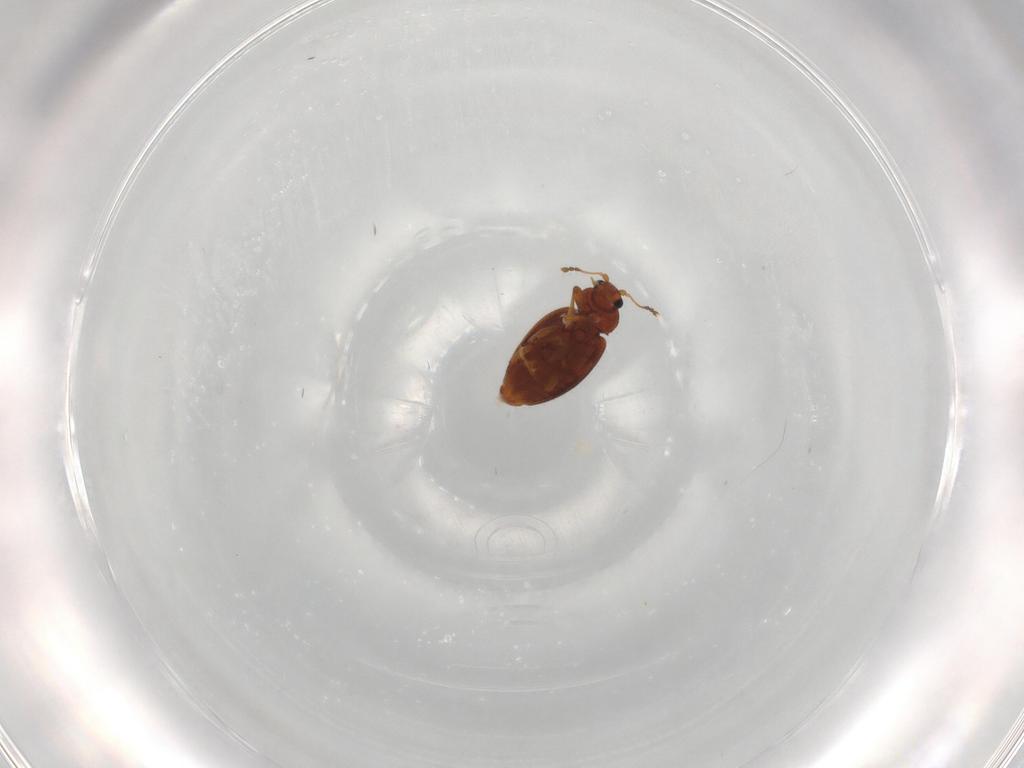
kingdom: Animalia
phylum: Arthropoda
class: Insecta
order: Coleoptera
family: Latridiidae
